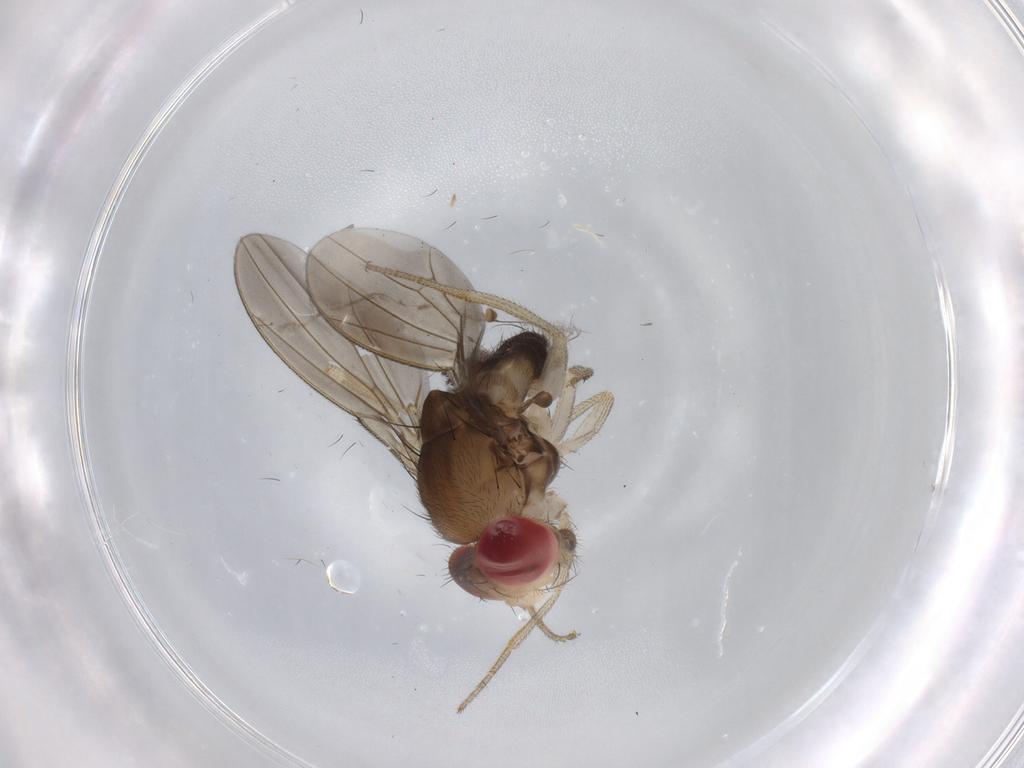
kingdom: Animalia
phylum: Arthropoda
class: Insecta
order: Diptera
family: Drosophilidae
